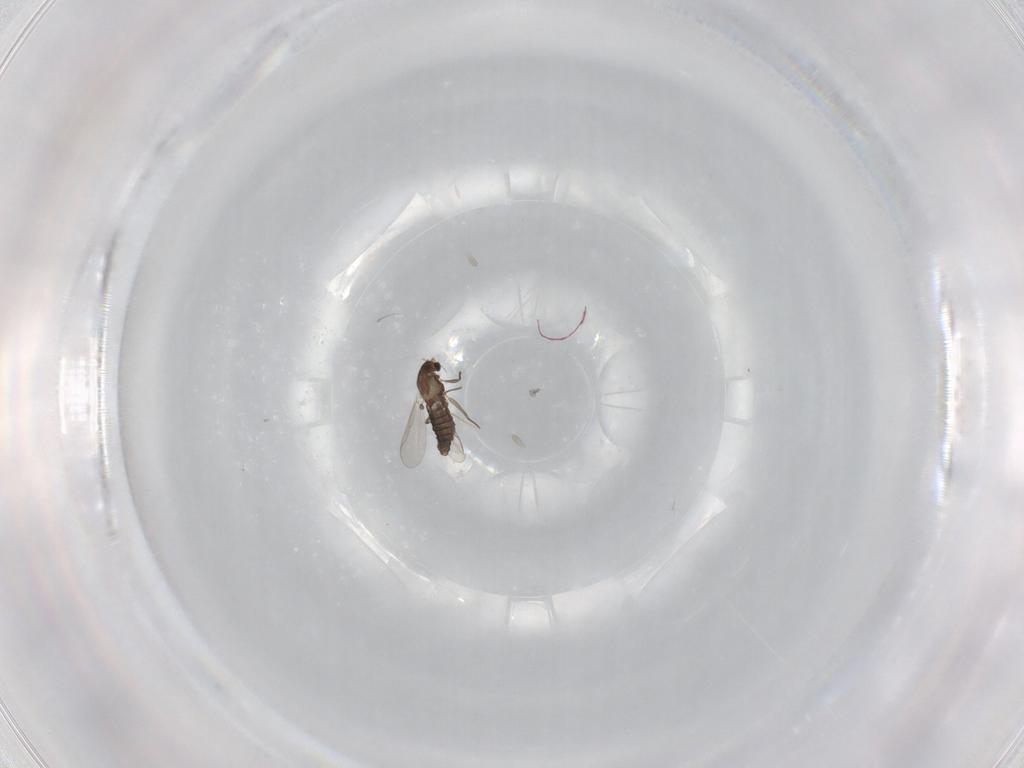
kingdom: Animalia
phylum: Arthropoda
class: Insecta
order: Diptera
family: Chironomidae
